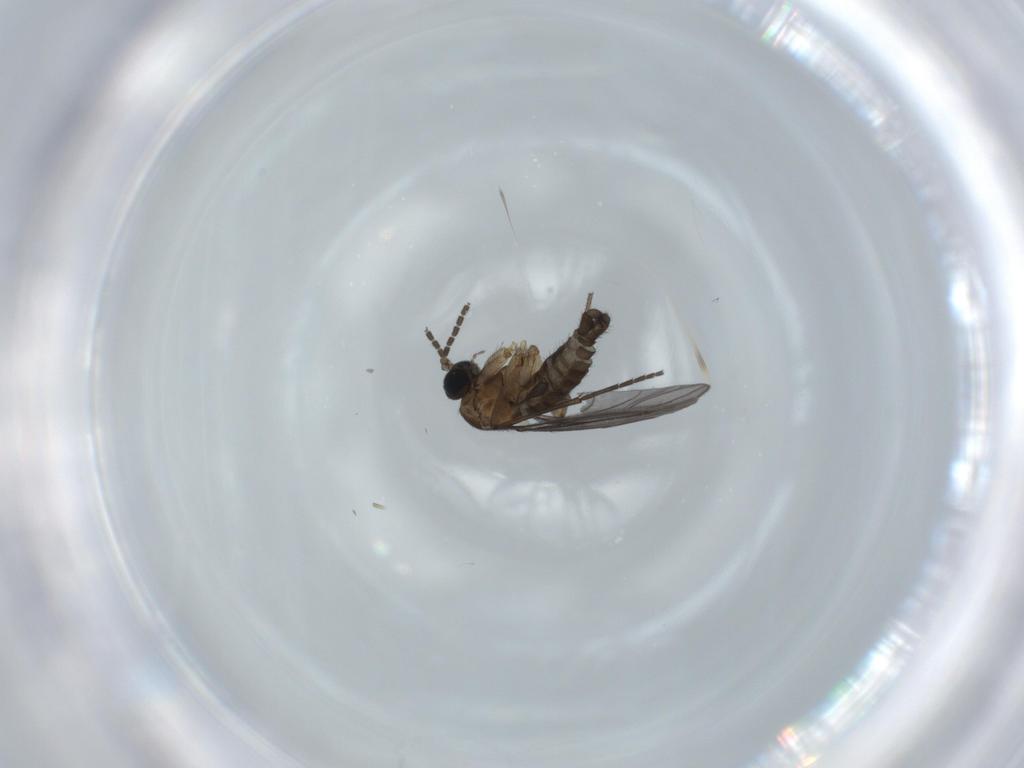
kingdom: Animalia
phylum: Arthropoda
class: Insecta
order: Diptera
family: Sciaridae
